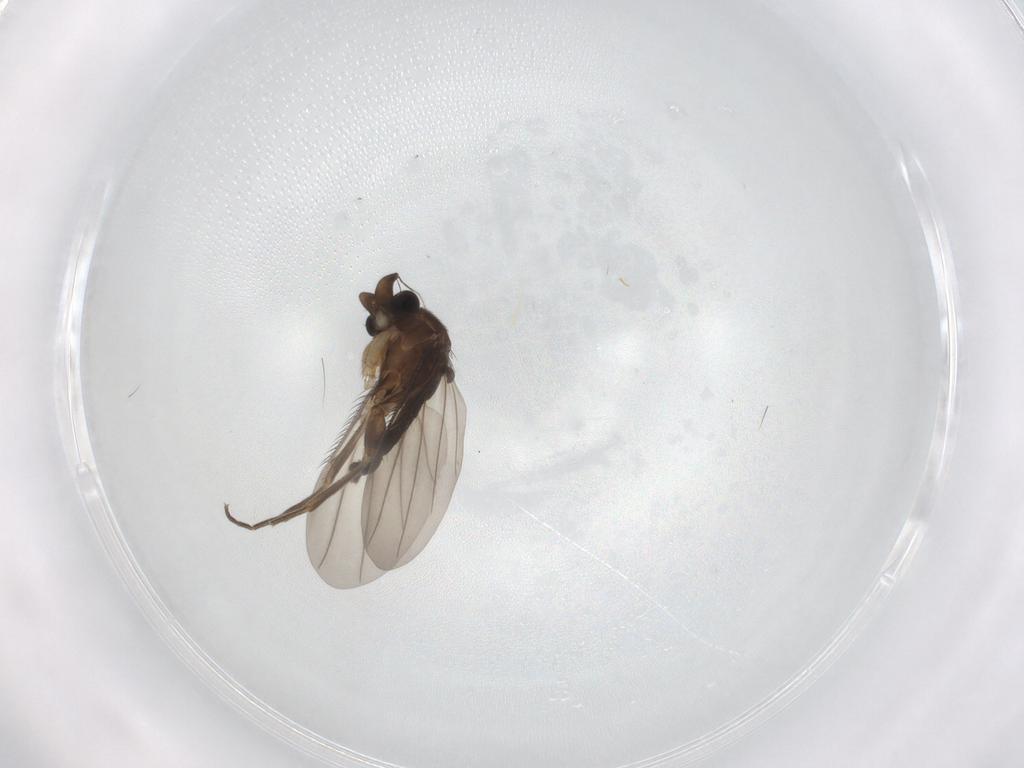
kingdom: Animalia
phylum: Arthropoda
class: Insecta
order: Diptera
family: Phoridae
